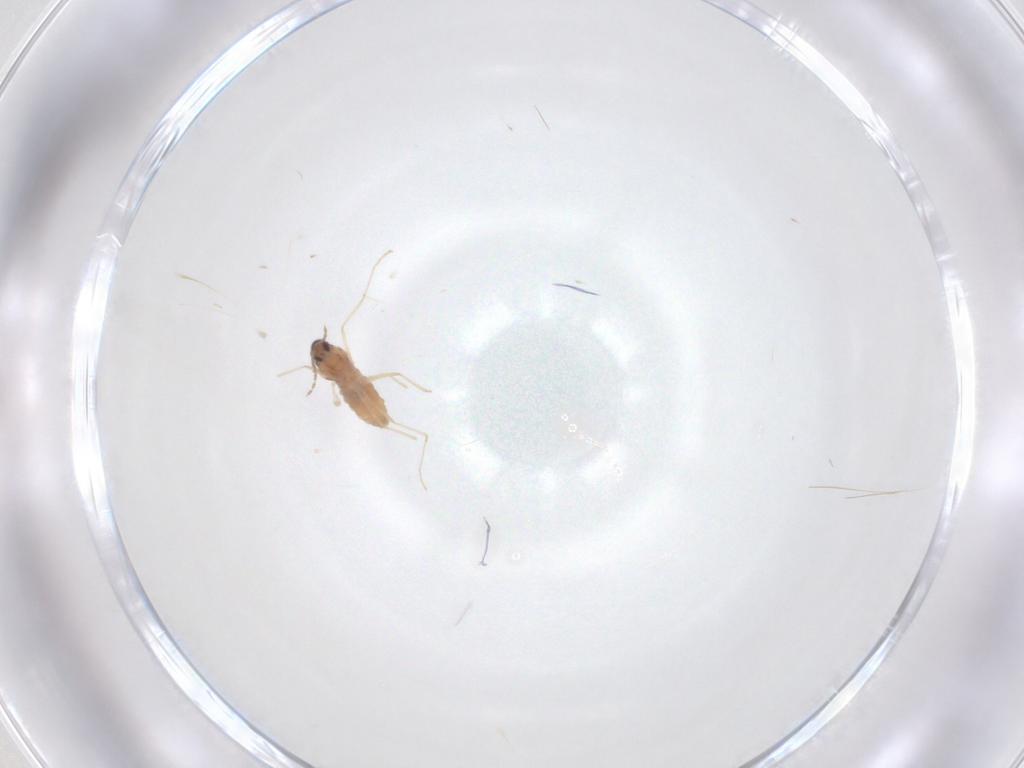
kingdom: Animalia
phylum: Arthropoda
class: Insecta
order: Diptera
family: Cecidomyiidae
